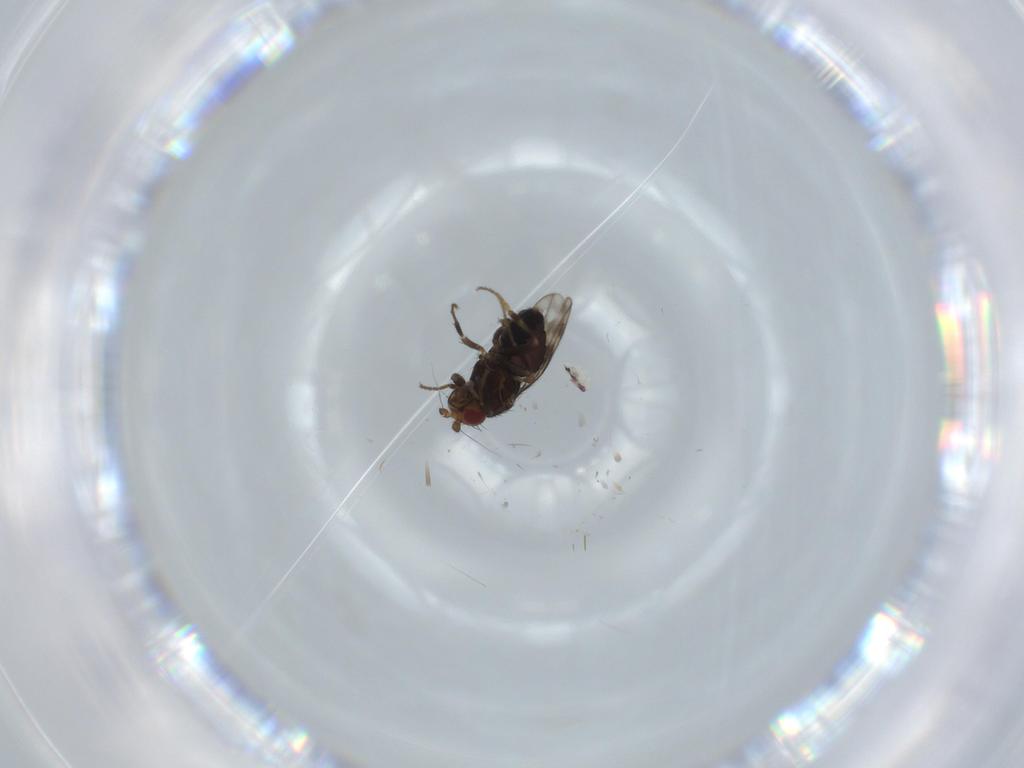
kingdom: Animalia
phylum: Arthropoda
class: Insecta
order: Diptera
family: Sphaeroceridae
